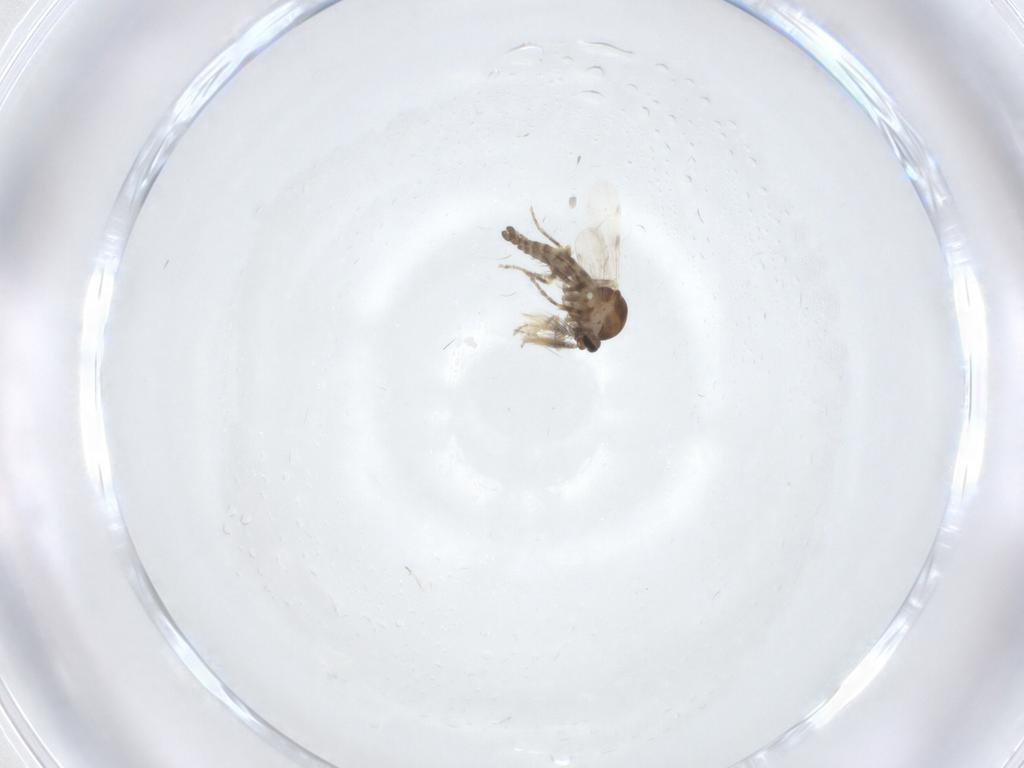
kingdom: Animalia
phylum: Arthropoda
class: Insecta
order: Diptera
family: Ceratopogonidae
